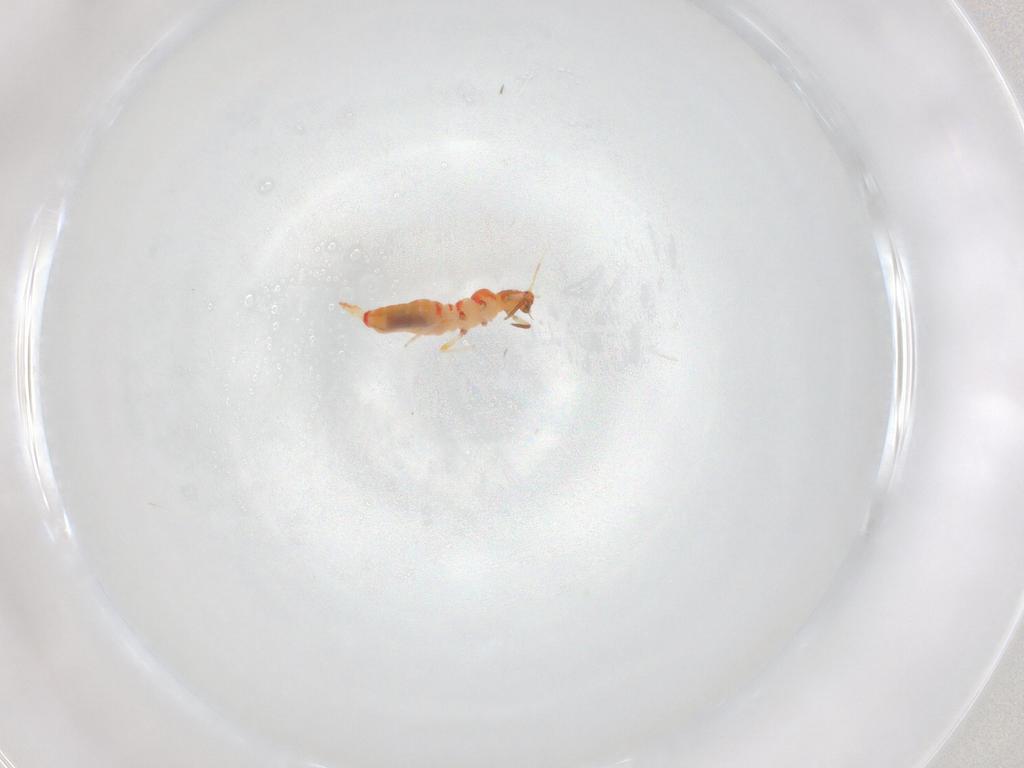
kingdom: Animalia
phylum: Arthropoda
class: Insecta
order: Thysanoptera
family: Aeolothripidae
